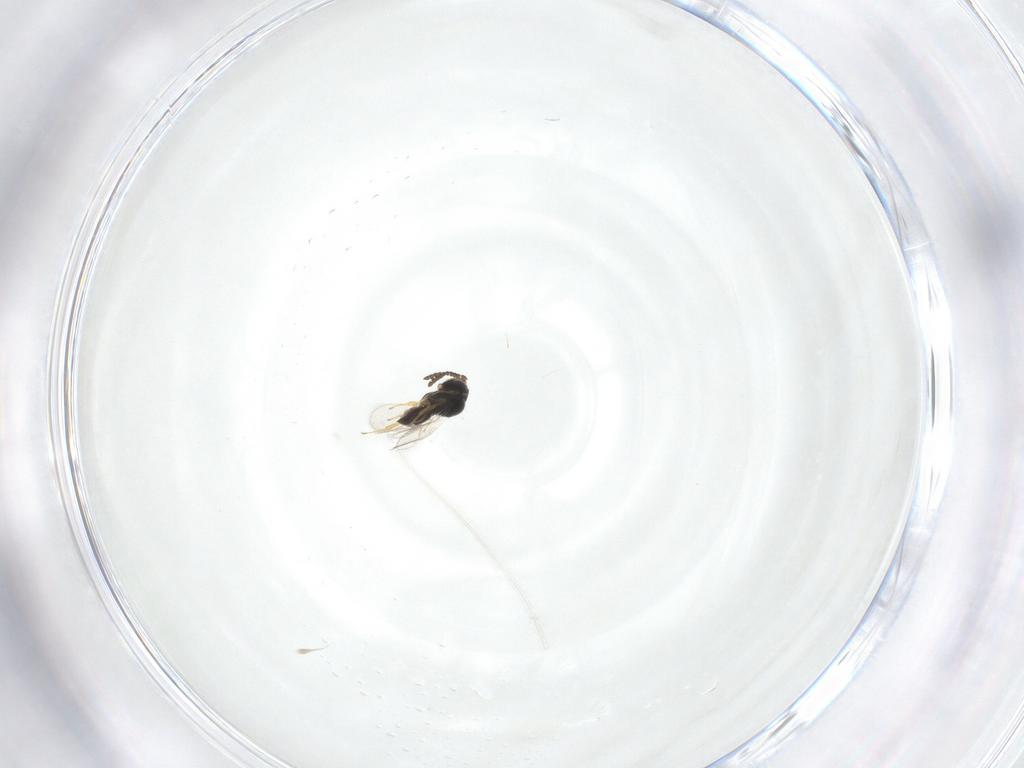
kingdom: Animalia
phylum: Arthropoda
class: Insecta
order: Hymenoptera
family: Scelionidae
